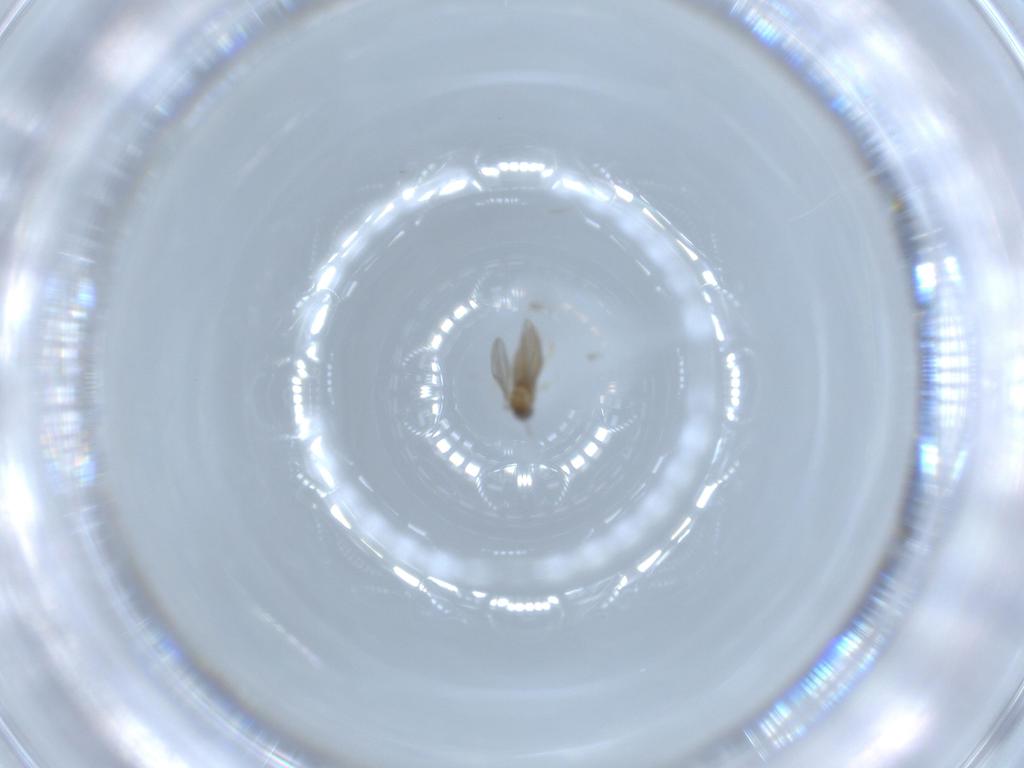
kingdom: Animalia
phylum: Arthropoda
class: Insecta
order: Diptera
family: Cecidomyiidae
